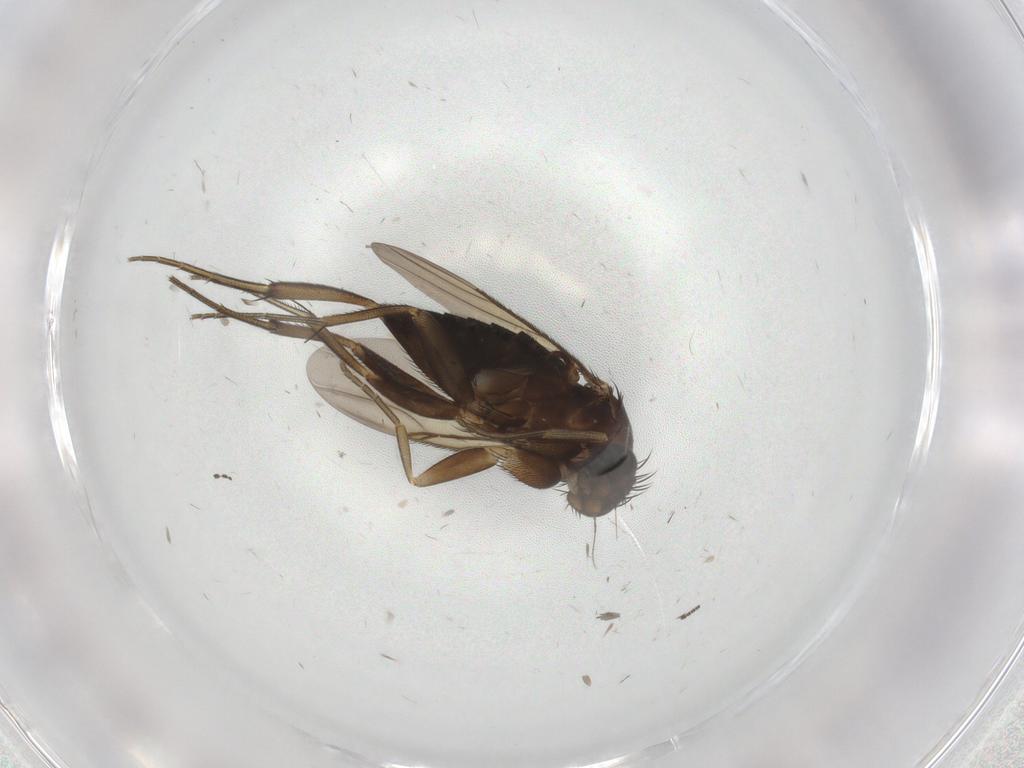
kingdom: Animalia
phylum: Arthropoda
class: Insecta
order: Diptera
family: Phoridae
